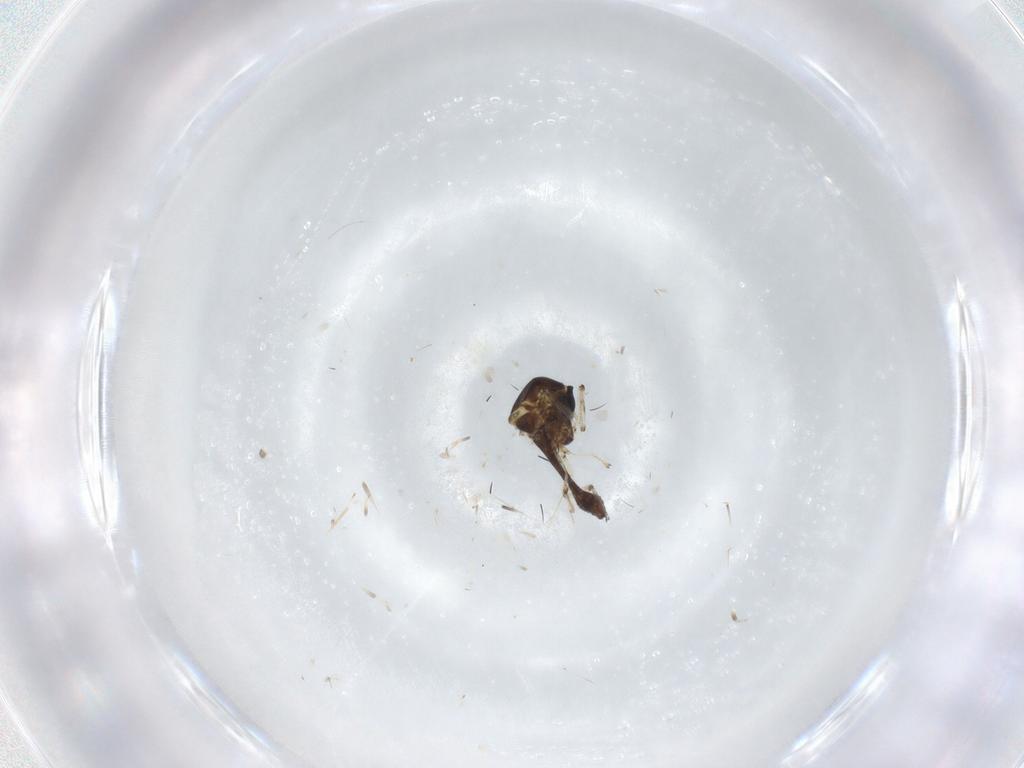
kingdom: Animalia
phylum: Arthropoda
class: Insecta
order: Diptera
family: Ceratopogonidae
